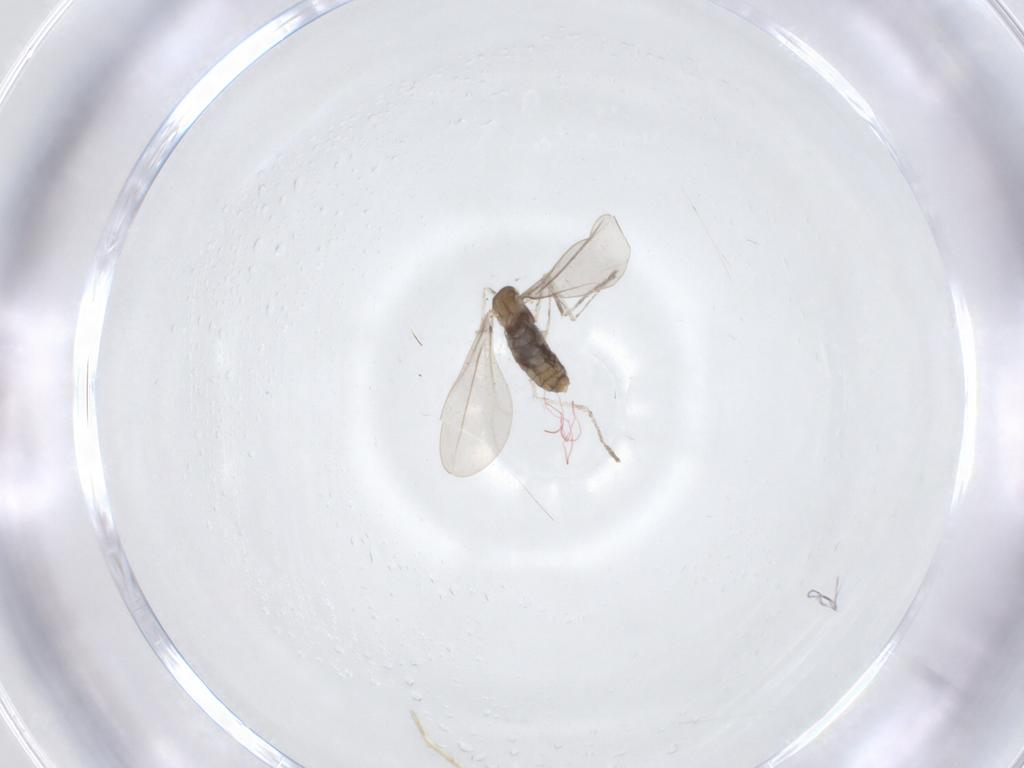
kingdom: Animalia
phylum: Arthropoda
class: Insecta
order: Diptera
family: Cecidomyiidae
